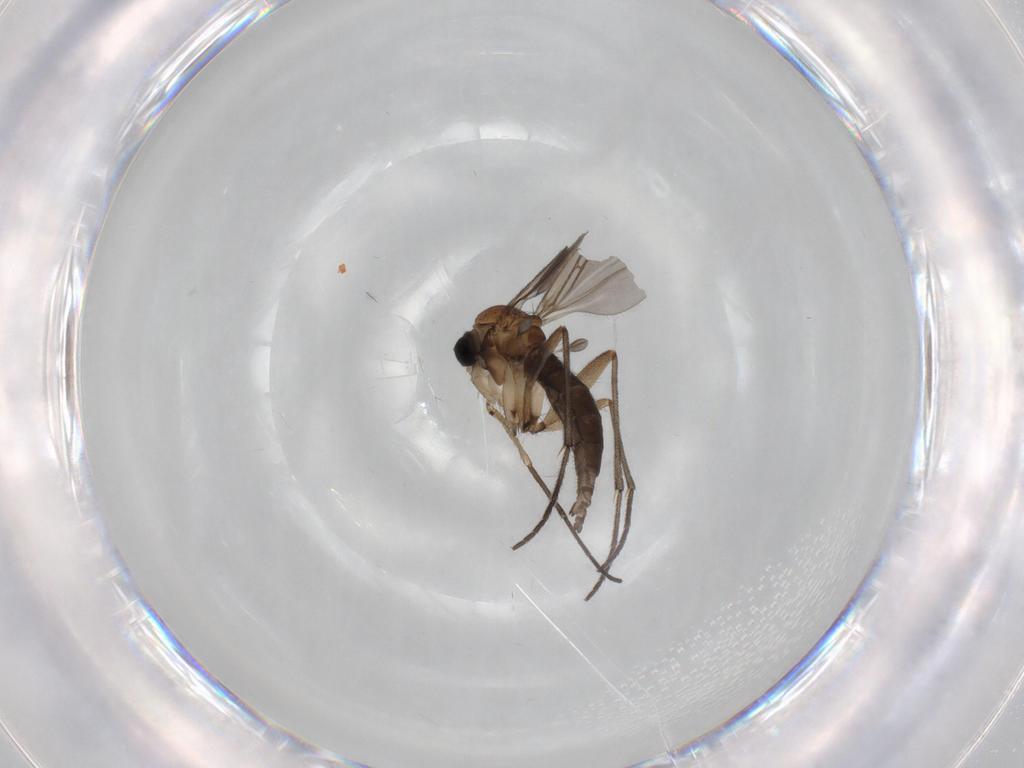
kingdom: Animalia
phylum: Arthropoda
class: Insecta
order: Diptera
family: Sciaridae
